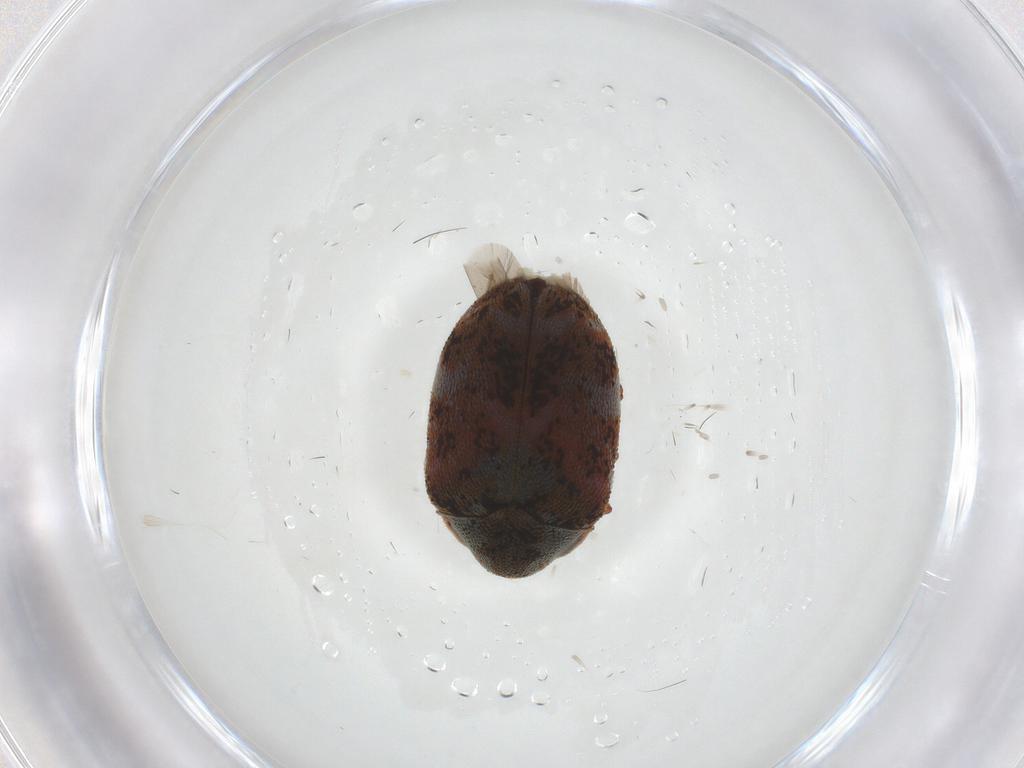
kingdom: Animalia
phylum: Arthropoda
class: Insecta
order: Coleoptera
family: Dermestidae
